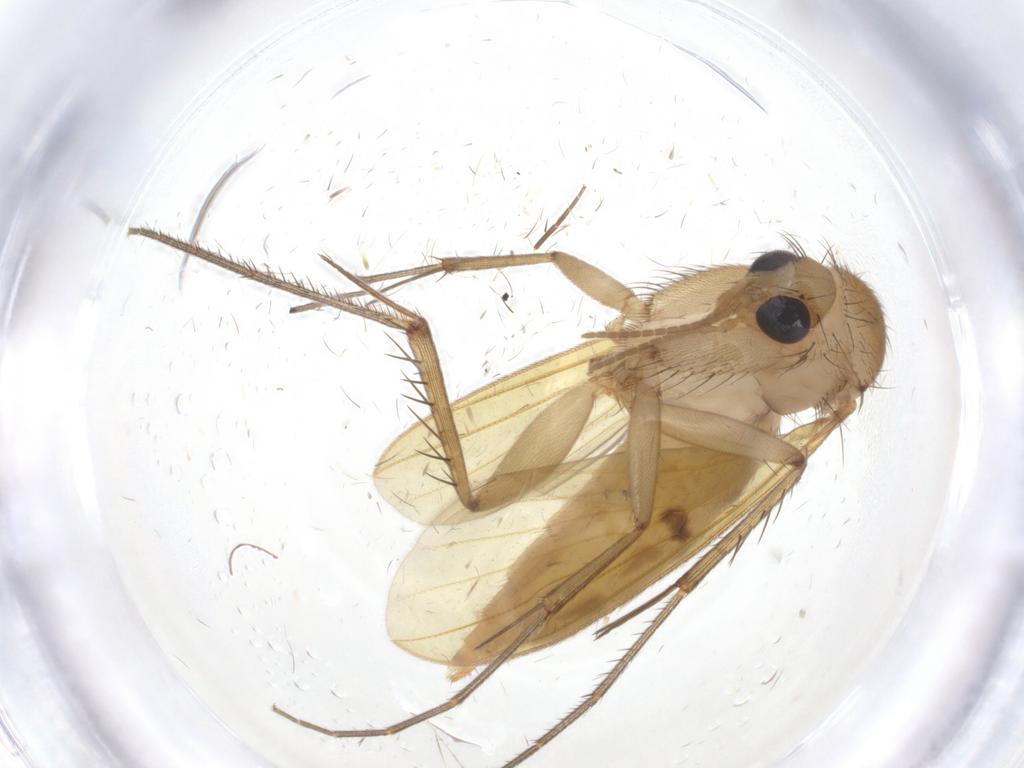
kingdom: Animalia
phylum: Arthropoda
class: Insecta
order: Diptera
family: Mycetophilidae
